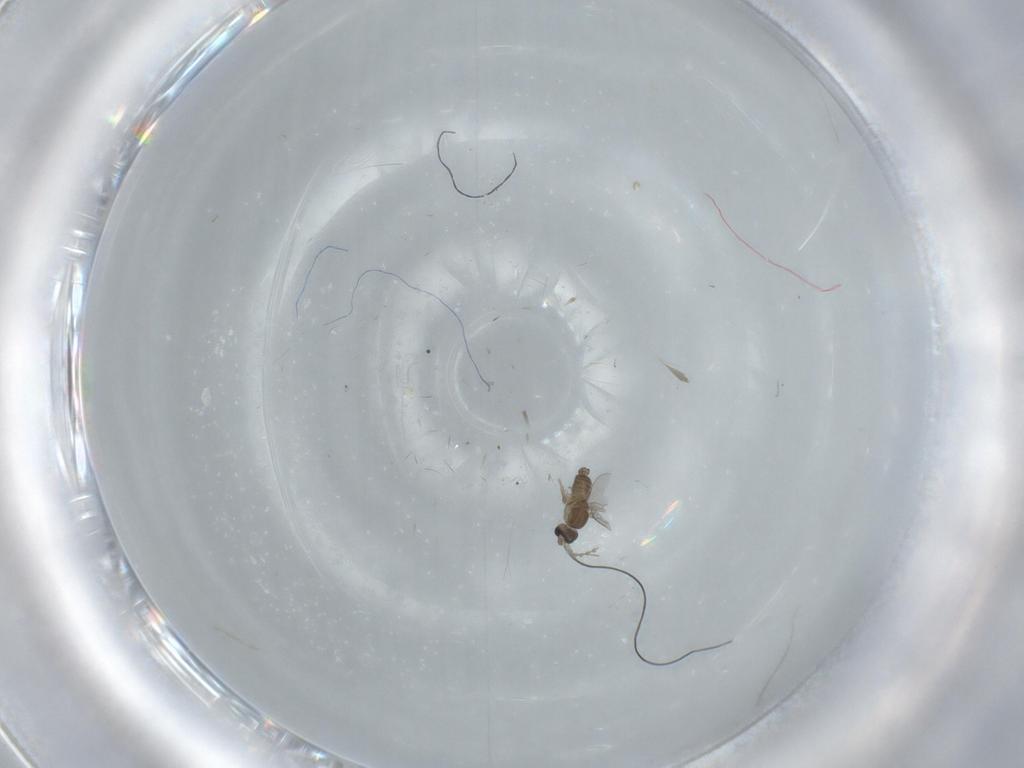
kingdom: Animalia
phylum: Arthropoda
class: Insecta
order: Diptera
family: Cecidomyiidae
